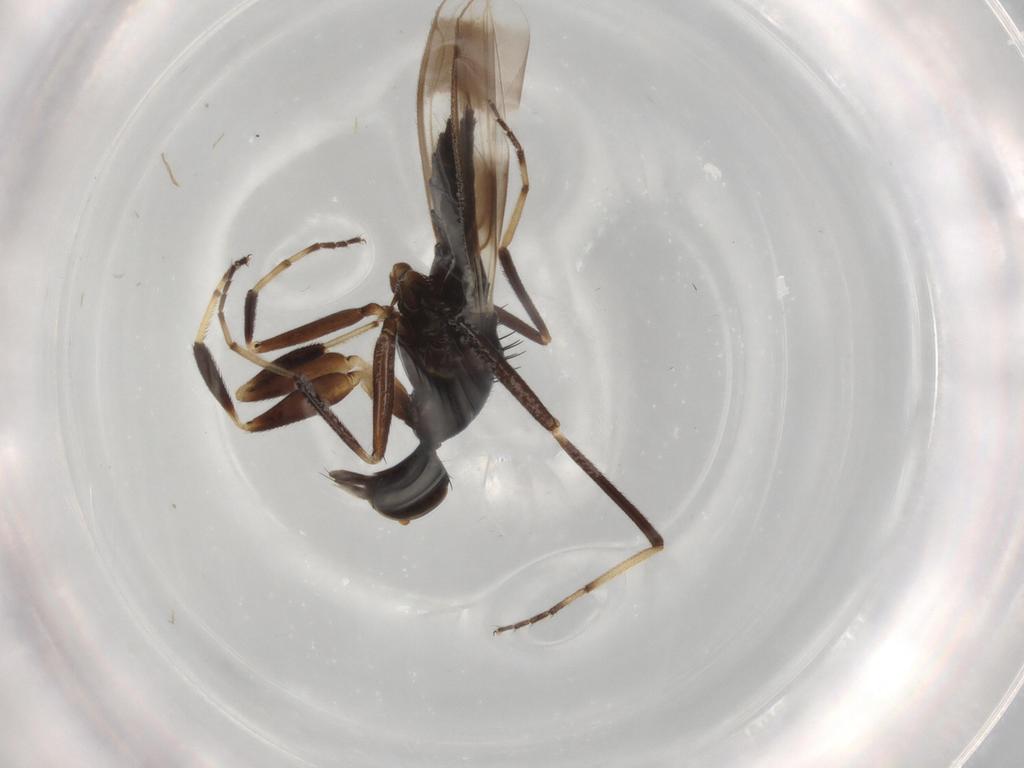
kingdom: Animalia
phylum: Arthropoda
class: Insecta
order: Diptera
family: Hybotidae
